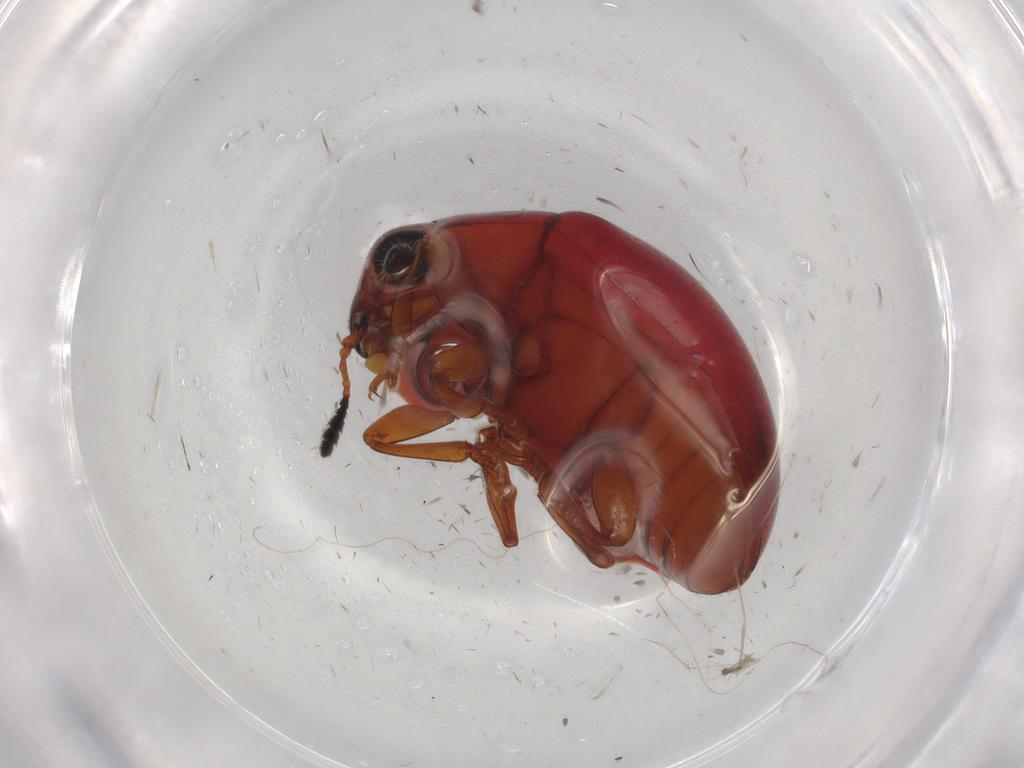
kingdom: Animalia
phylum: Arthropoda
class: Insecta
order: Coleoptera
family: Erotylidae
